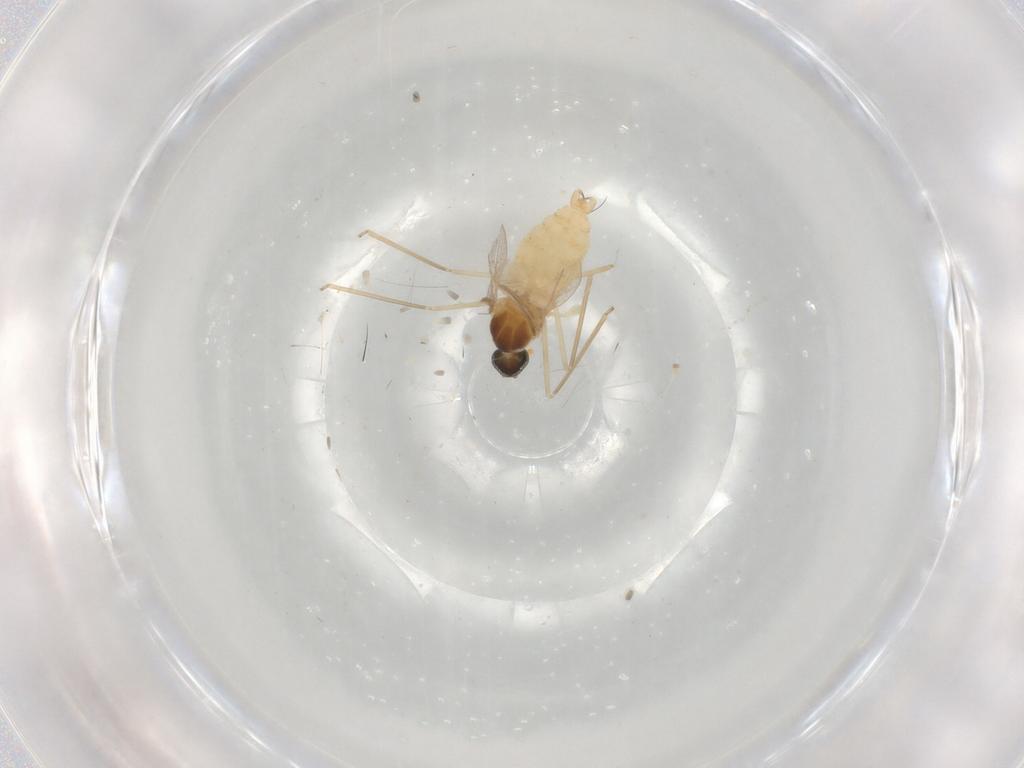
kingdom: Animalia
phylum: Arthropoda
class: Insecta
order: Diptera
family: Cecidomyiidae
